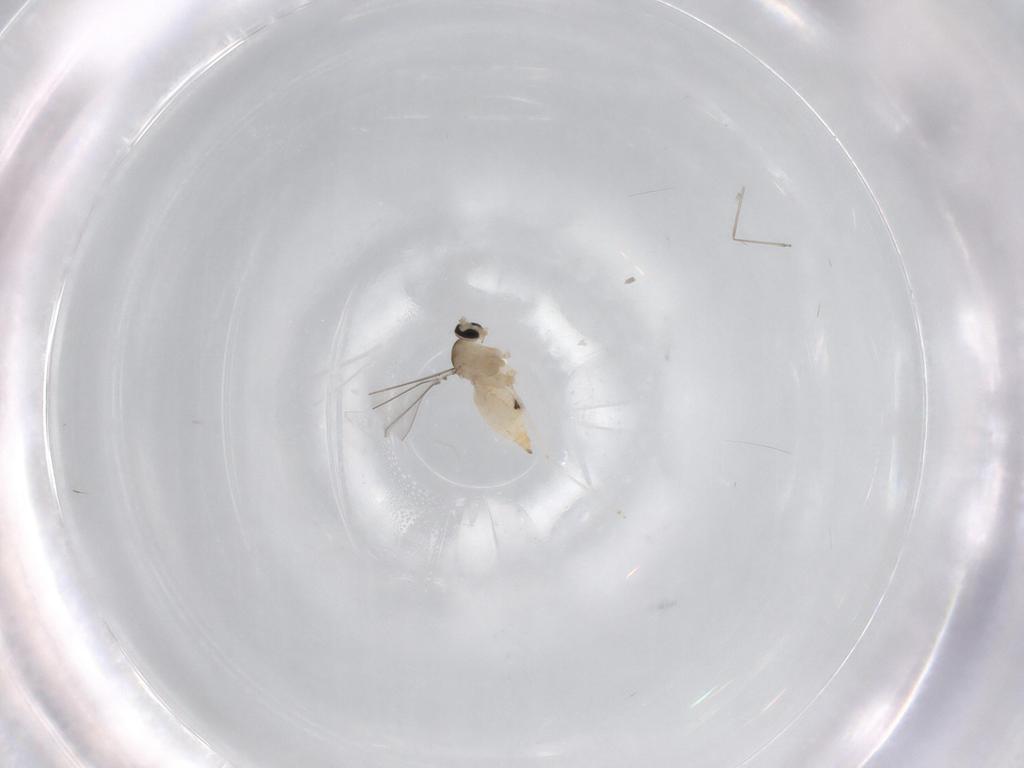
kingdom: Animalia
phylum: Arthropoda
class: Insecta
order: Diptera
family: Cecidomyiidae
